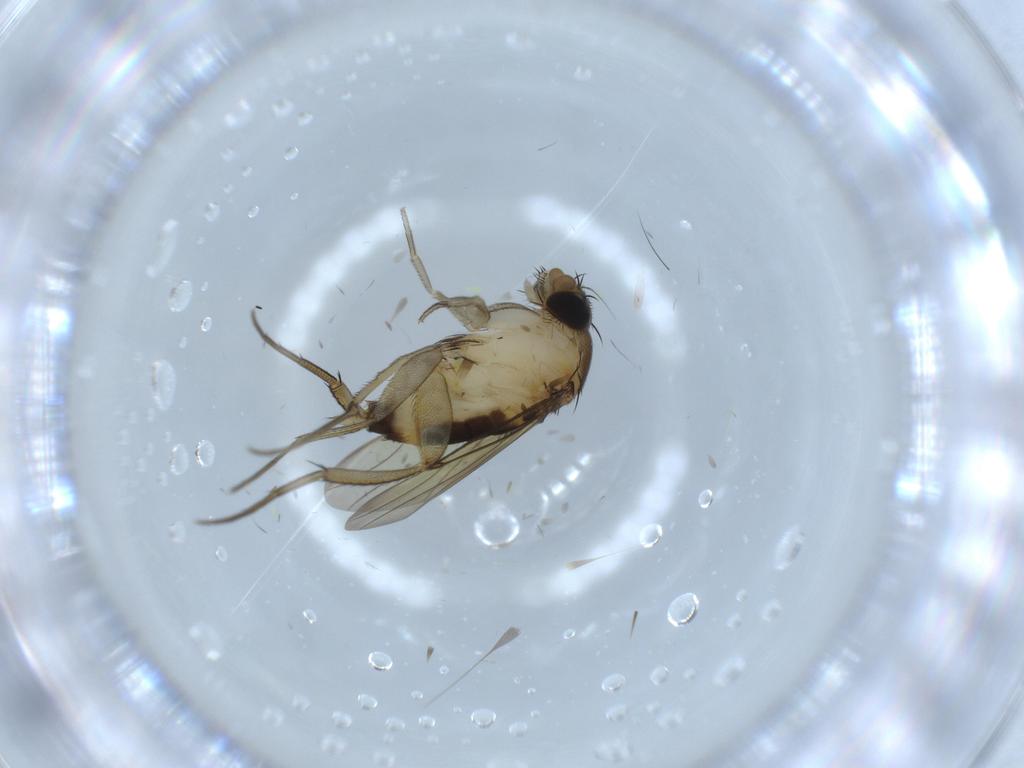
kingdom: Animalia
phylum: Arthropoda
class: Insecta
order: Diptera
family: Phoridae
